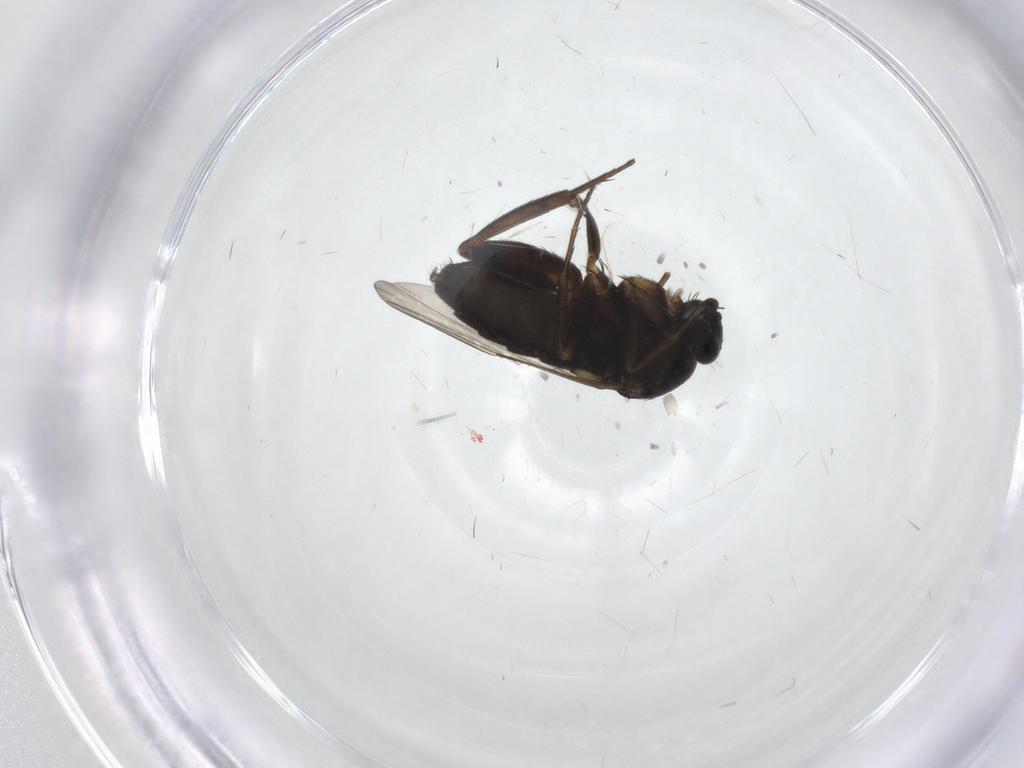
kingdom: Animalia
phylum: Arthropoda
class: Insecta
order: Diptera
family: Phoridae
